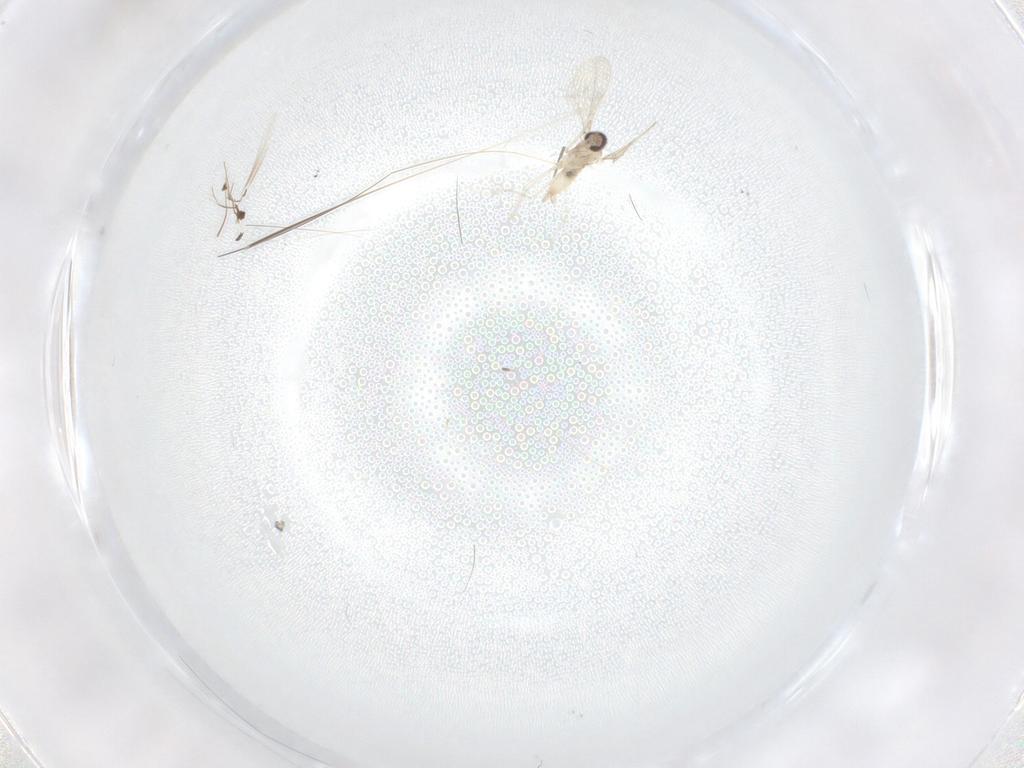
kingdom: Animalia
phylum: Arthropoda
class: Insecta
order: Diptera
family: Cecidomyiidae
